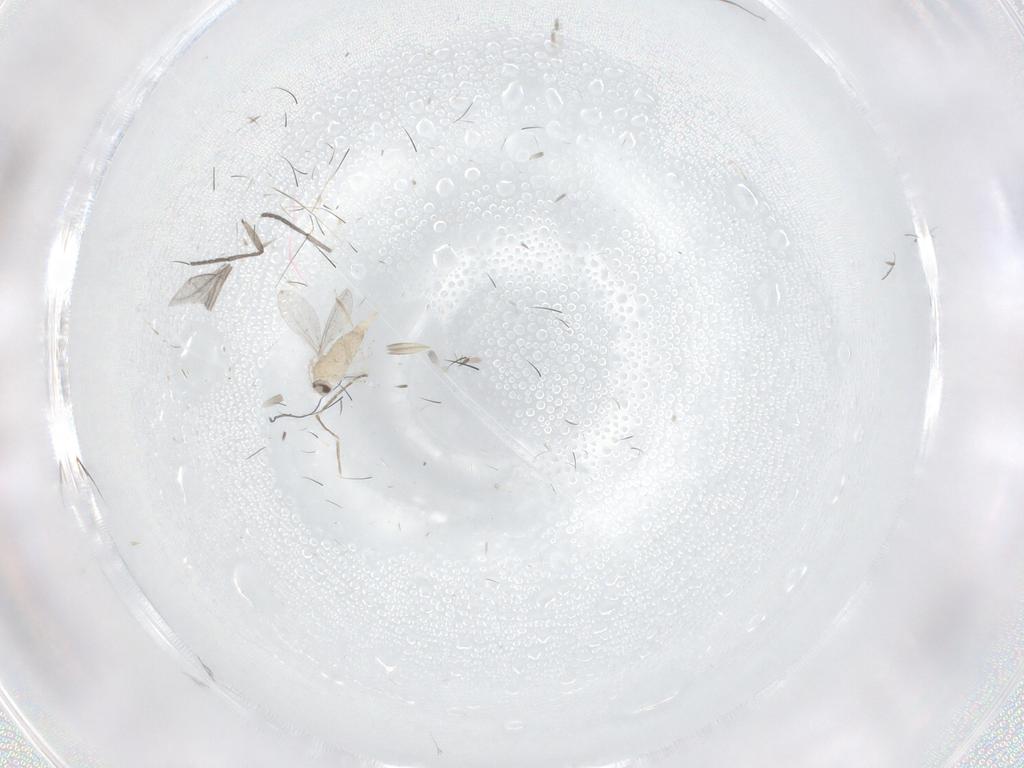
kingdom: Animalia
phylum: Arthropoda
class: Insecta
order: Diptera
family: Cecidomyiidae
